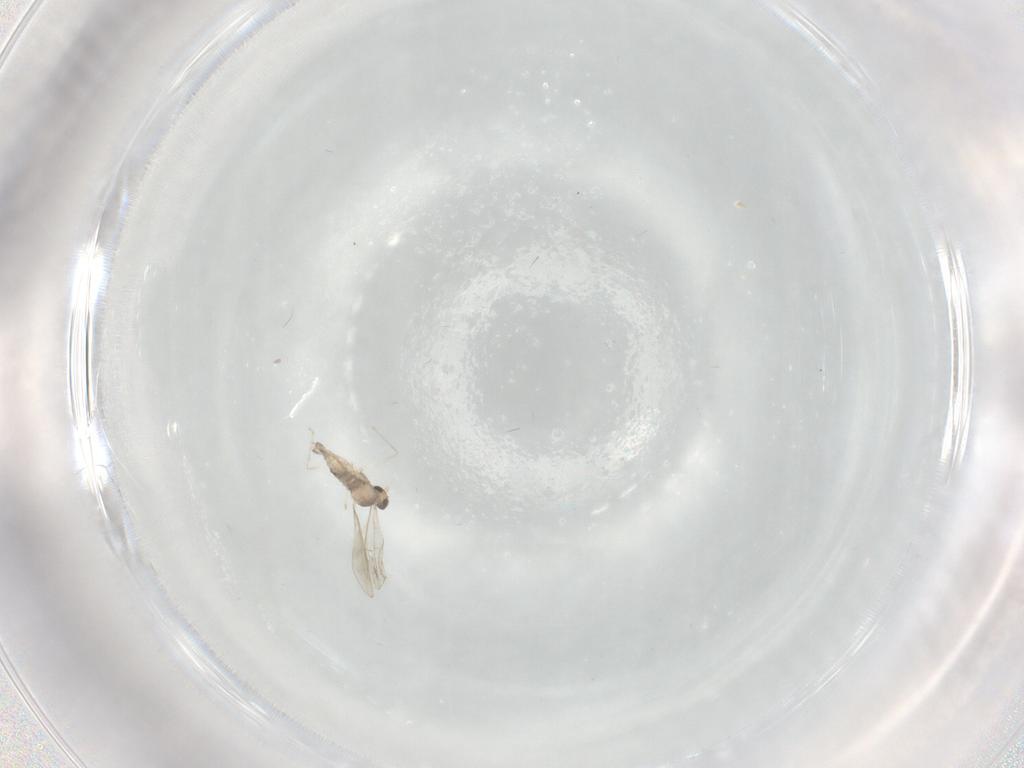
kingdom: Animalia
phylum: Arthropoda
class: Insecta
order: Diptera
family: Cecidomyiidae
